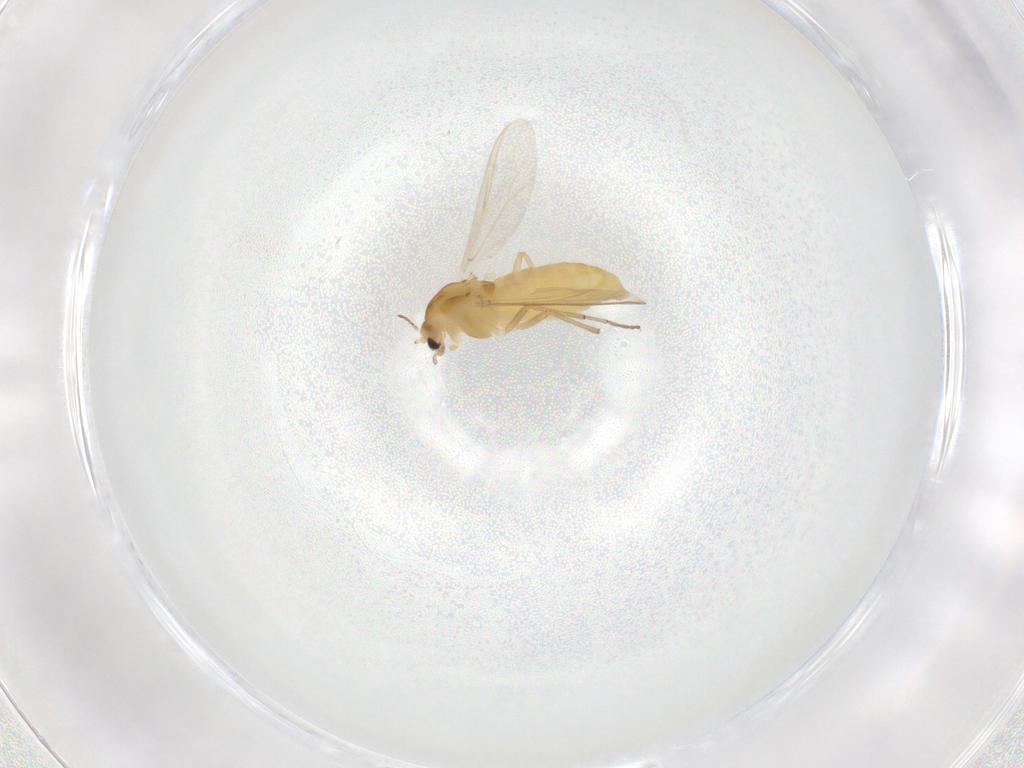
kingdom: Animalia
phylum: Arthropoda
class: Insecta
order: Diptera
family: Chironomidae
